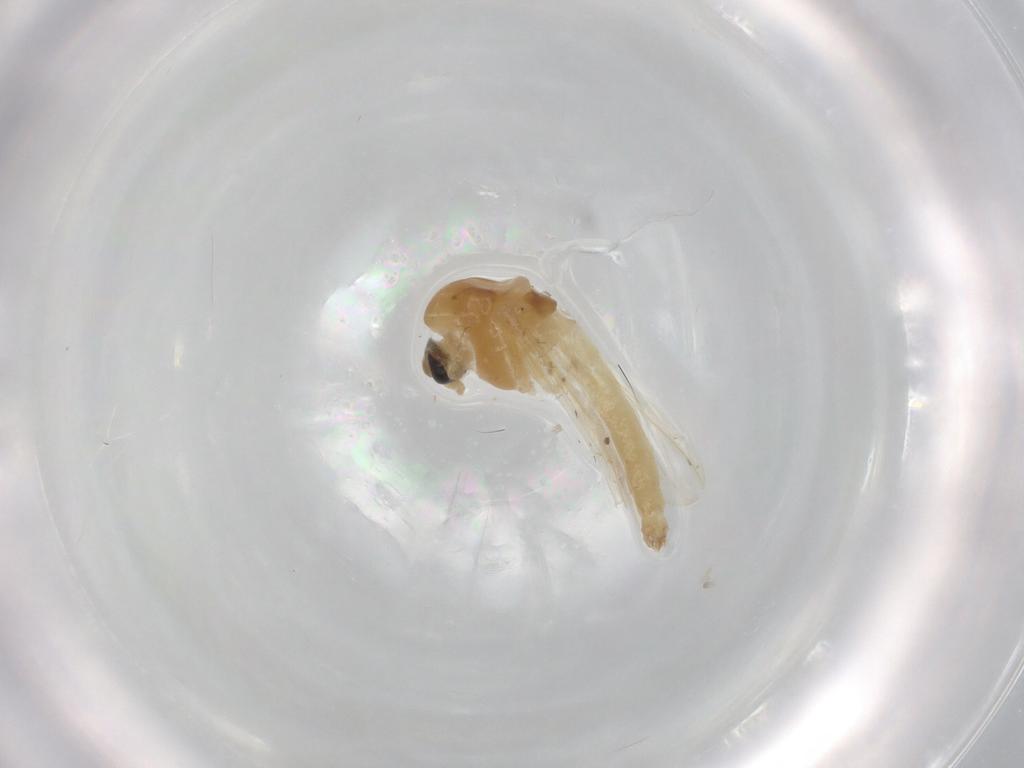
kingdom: Animalia
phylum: Arthropoda
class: Insecta
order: Diptera
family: Chironomidae
